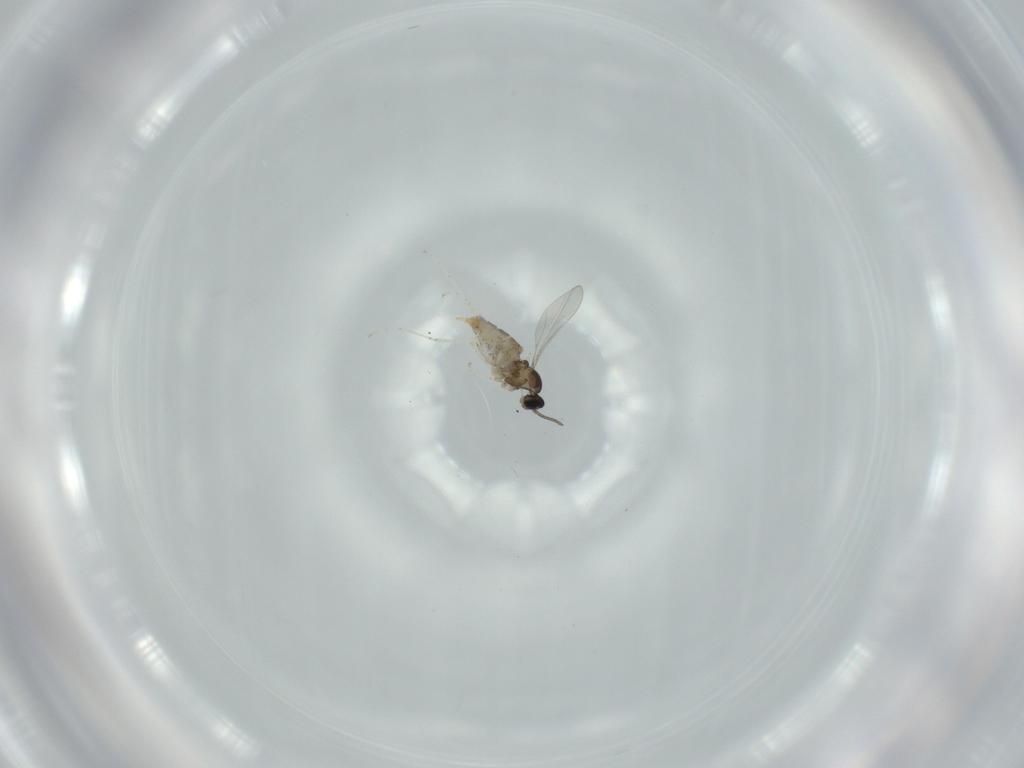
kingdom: Animalia
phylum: Arthropoda
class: Insecta
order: Diptera
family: Cecidomyiidae
